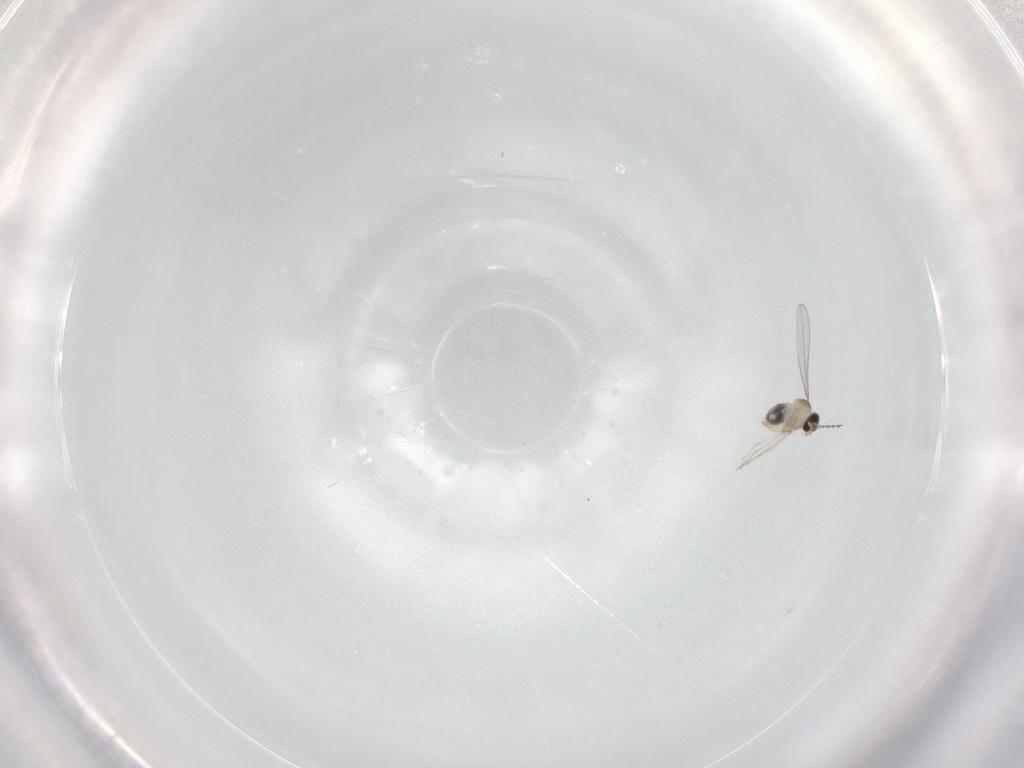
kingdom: Animalia
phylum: Arthropoda
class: Insecta
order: Diptera
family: Cecidomyiidae
